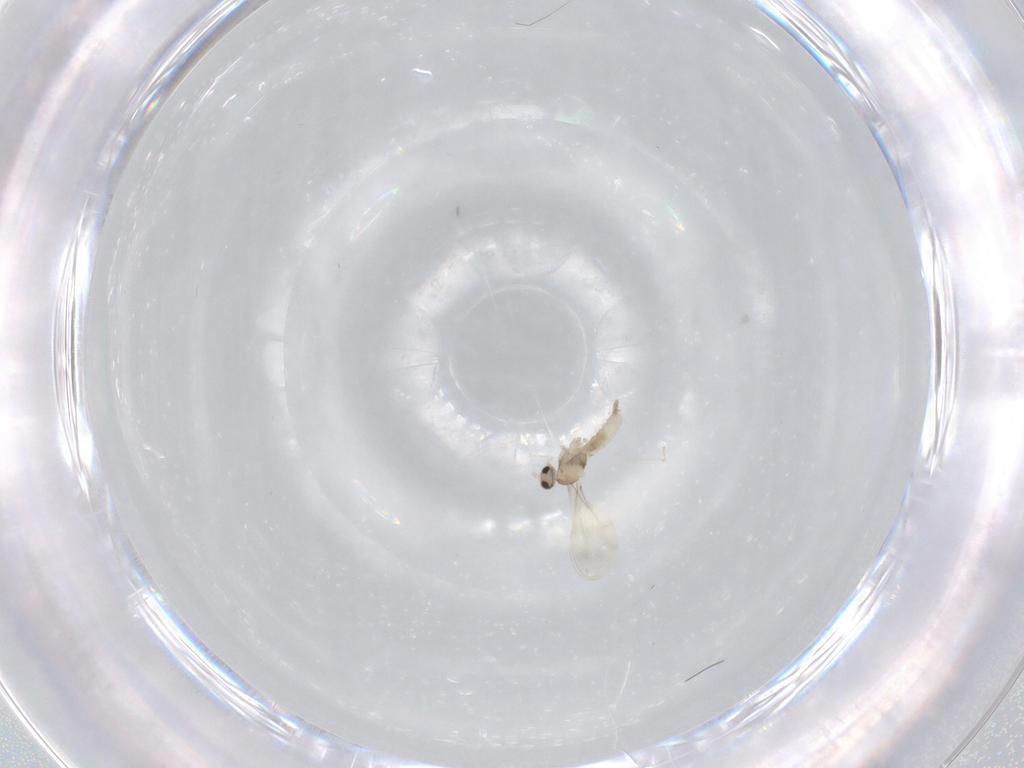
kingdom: Animalia
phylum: Arthropoda
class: Insecta
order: Diptera
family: Cecidomyiidae
